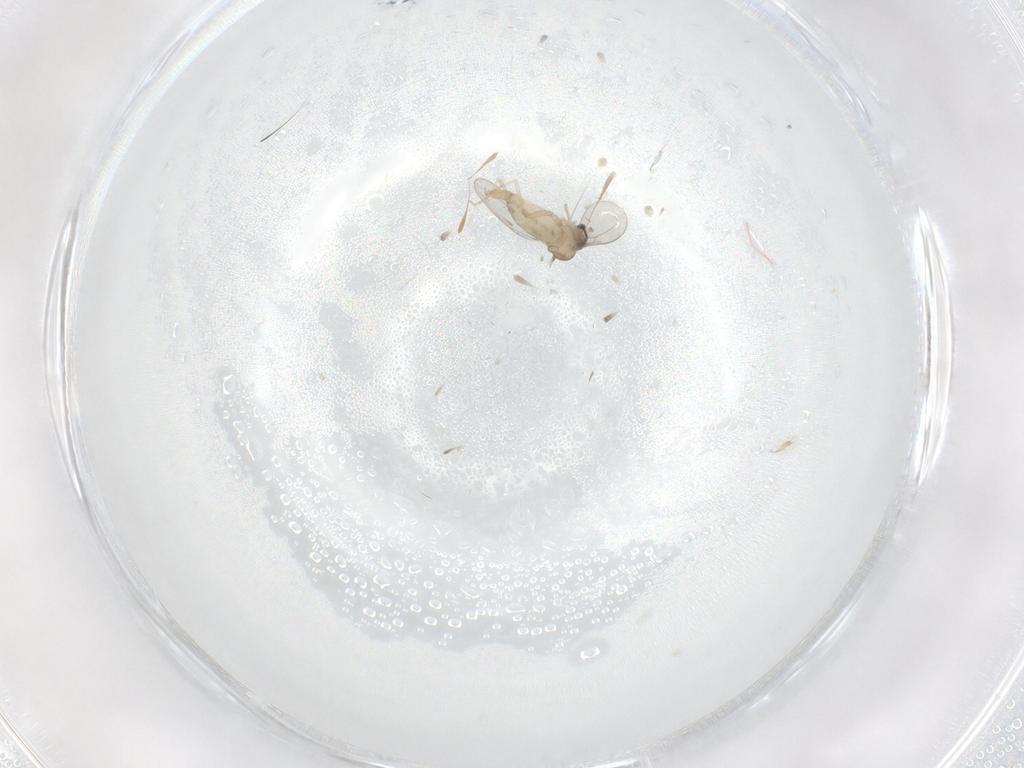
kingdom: Animalia
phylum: Arthropoda
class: Insecta
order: Diptera
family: Cecidomyiidae
